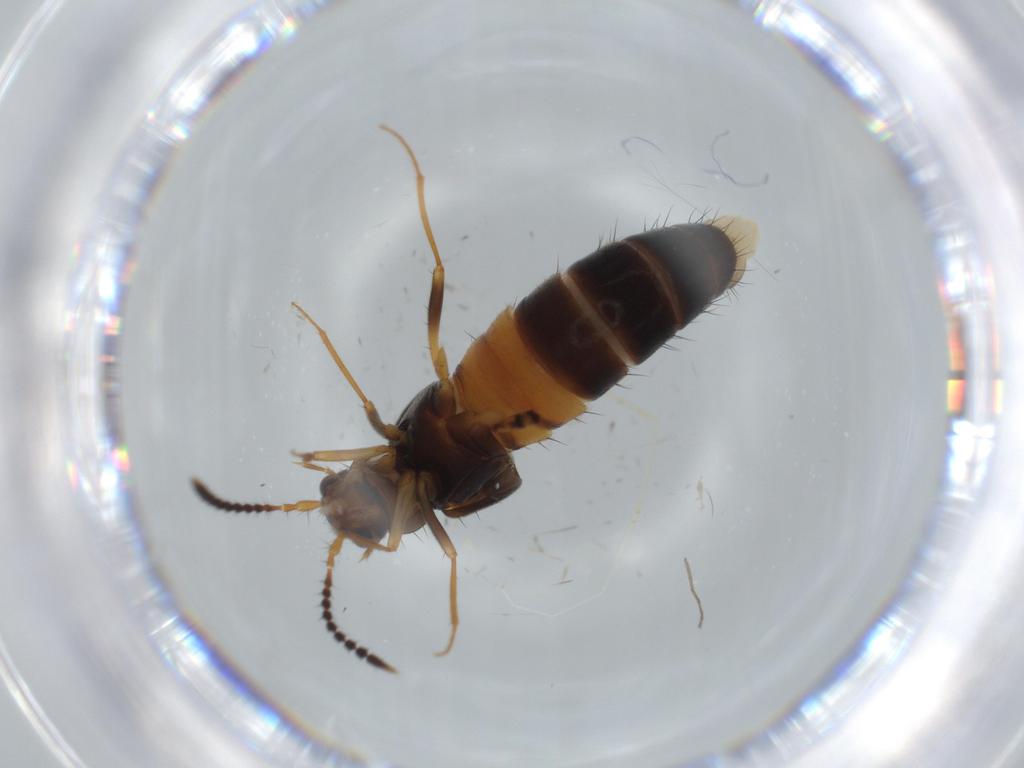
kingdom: Animalia
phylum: Arthropoda
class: Insecta
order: Coleoptera
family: Staphylinidae
